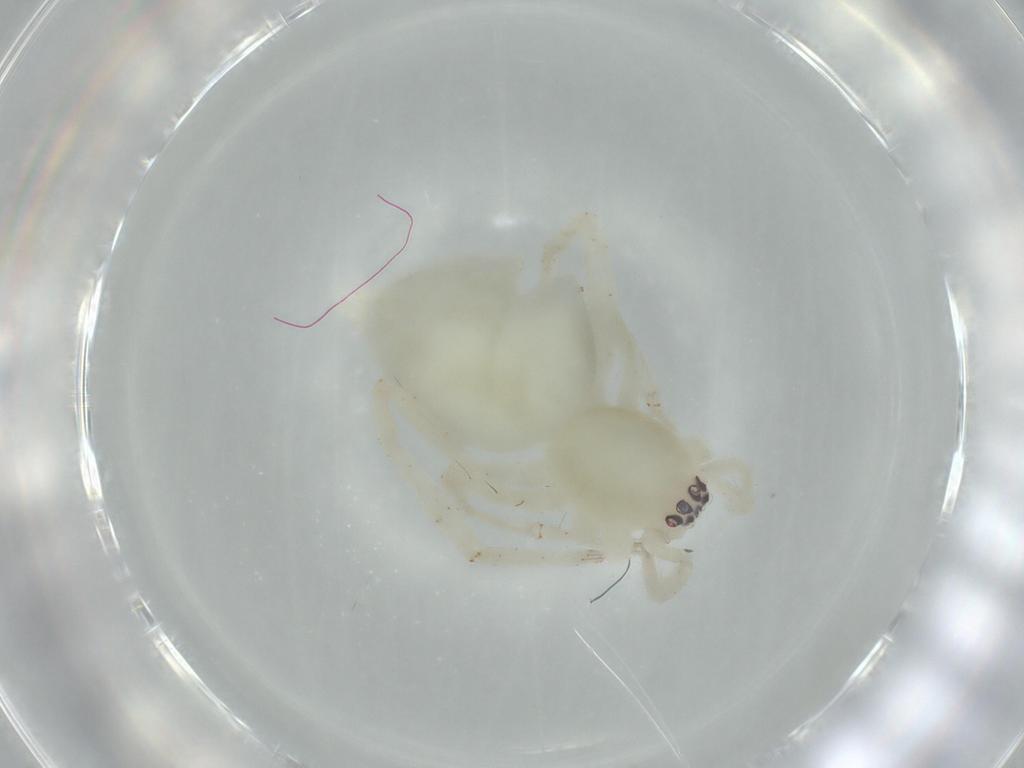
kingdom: Animalia
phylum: Arthropoda
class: Arachnida
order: Araneae
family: Anyphaenidae
